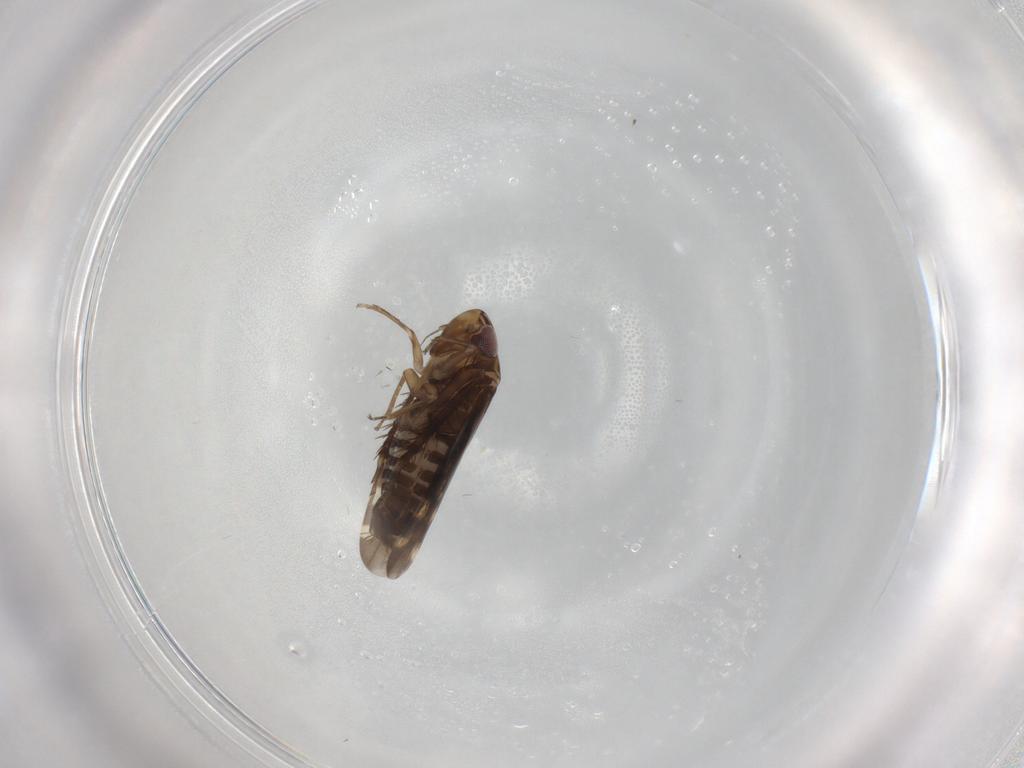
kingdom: Animalia
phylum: Arthropoda
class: Insecta
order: Hemiptera
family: Cicadellidae
